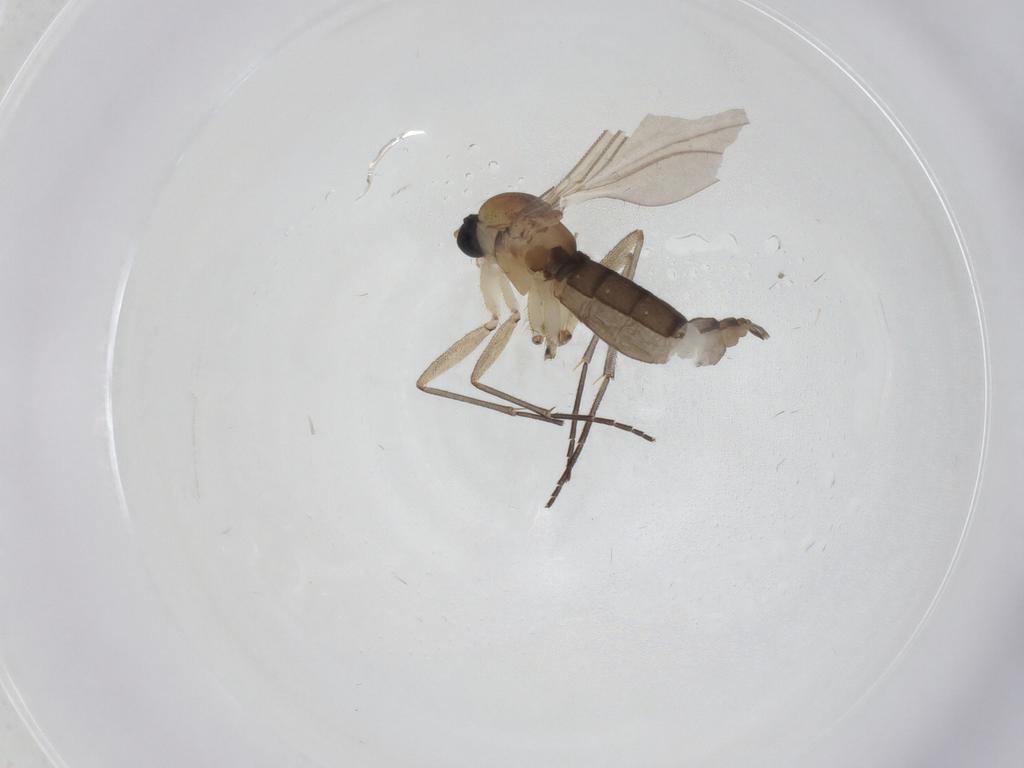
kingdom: Animalia
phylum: Arthropoda
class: Insecta
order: Diptera
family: Sciaridae
